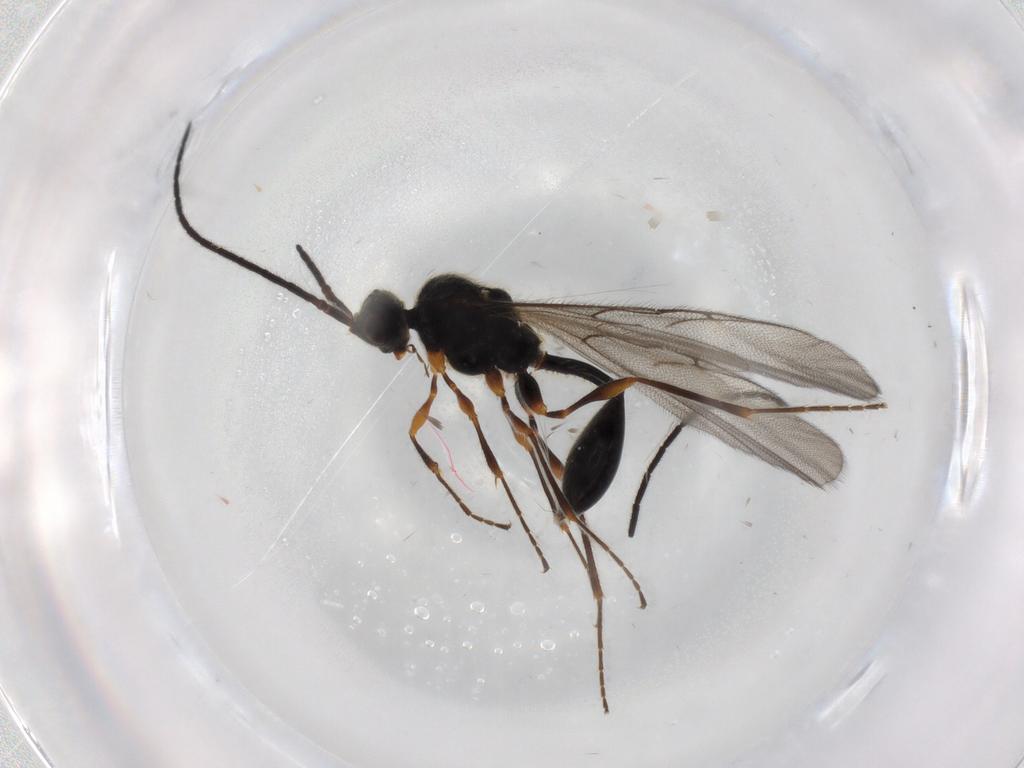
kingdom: Animalia
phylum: Arthropoda
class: Insecta
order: Hymenoptera
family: Diapriidae
